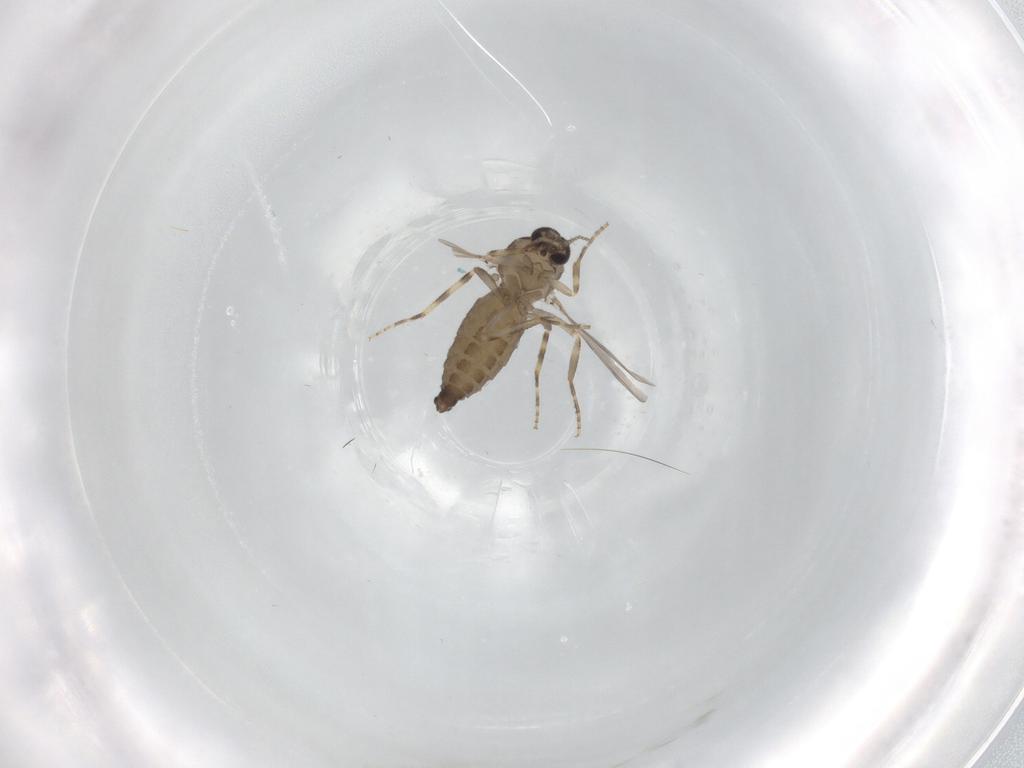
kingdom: Animalia
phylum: Arthropoda
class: Insecta
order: Diptera
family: Ceratopogonidae
